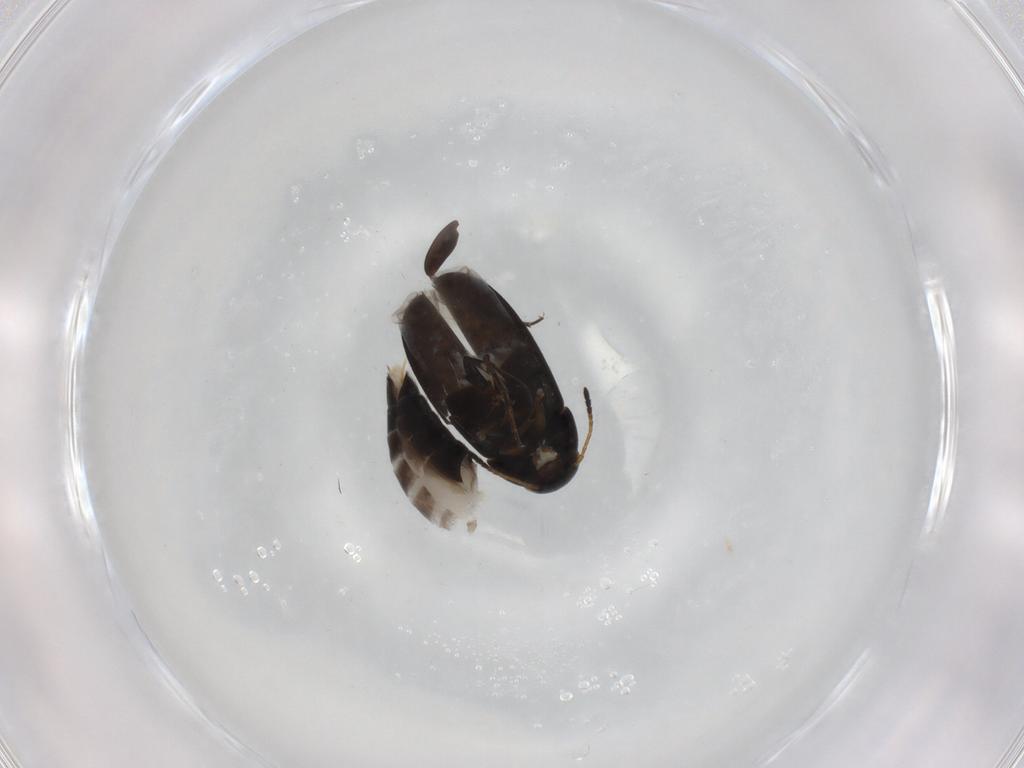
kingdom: Animalia
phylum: Arthropoda
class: Insecta
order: Coleoptera
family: Scraptiidae
